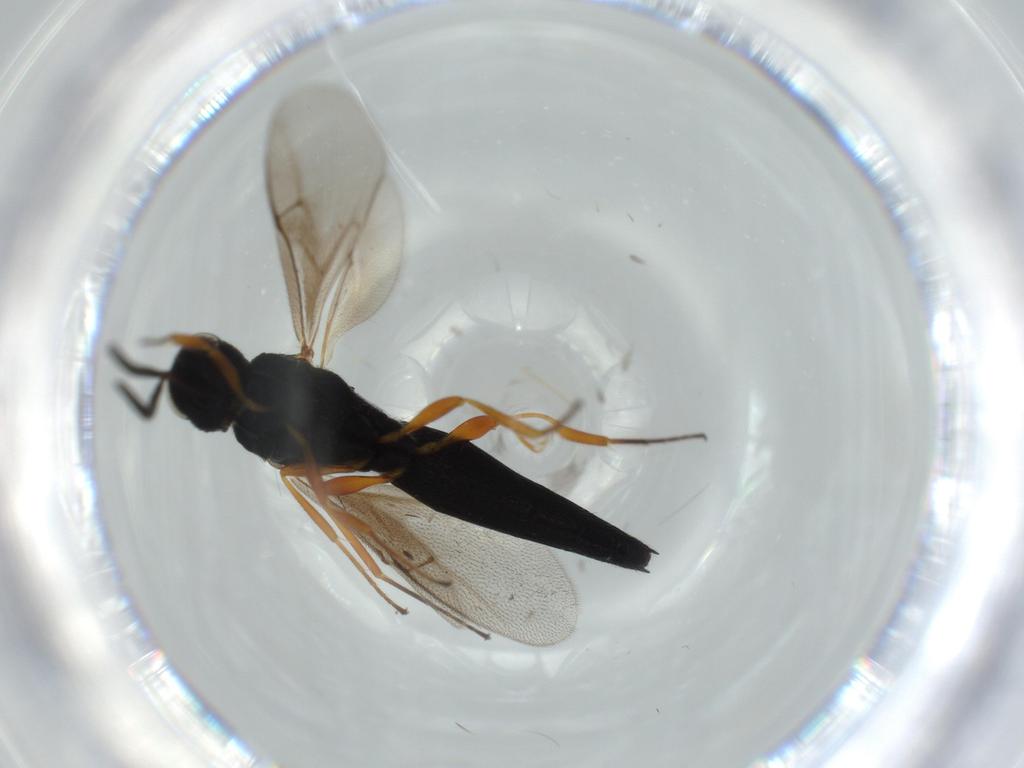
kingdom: Animalia
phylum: Arthropoda
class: Insecta
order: Hymenoptera
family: Scelionidae
